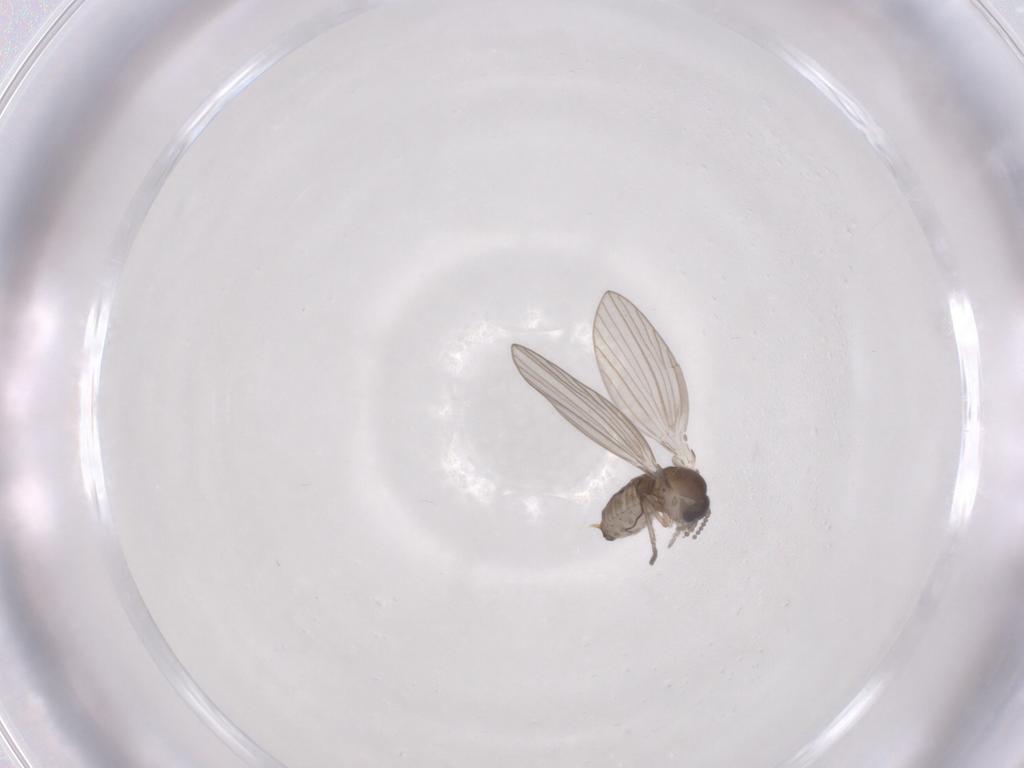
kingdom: Animalia
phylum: Arthropoda
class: Insecta
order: Diptera
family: Psychodidae
